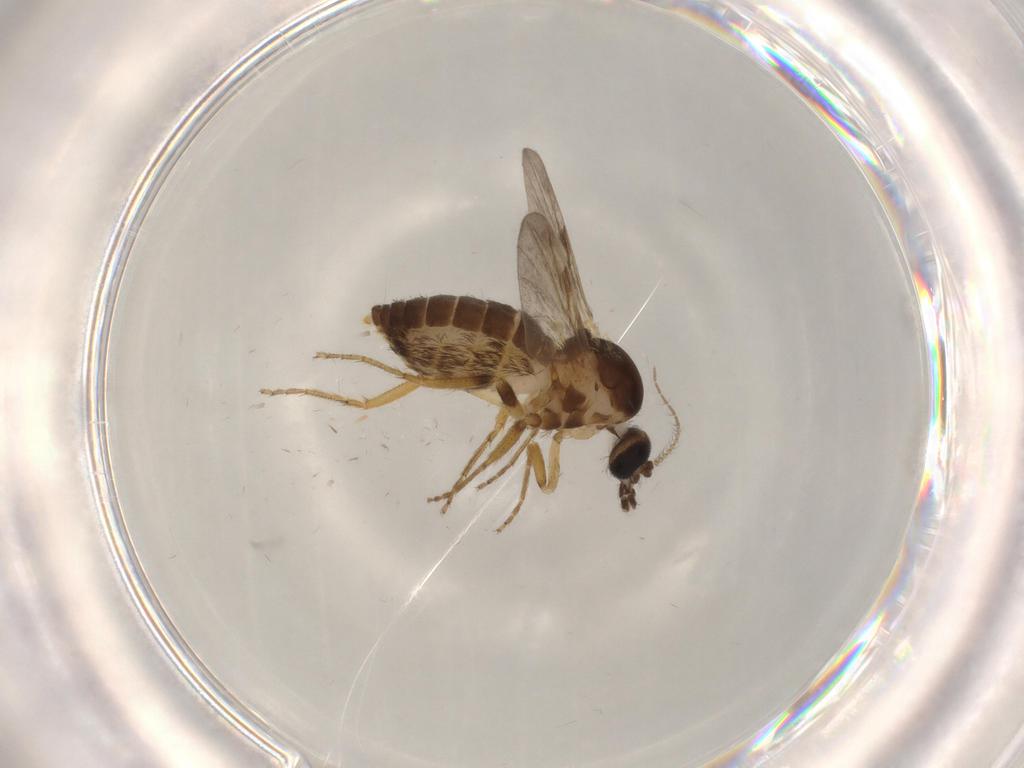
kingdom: Animalia
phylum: Arthropoda
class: Insecta
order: Diptera
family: Ceratopogonidae
